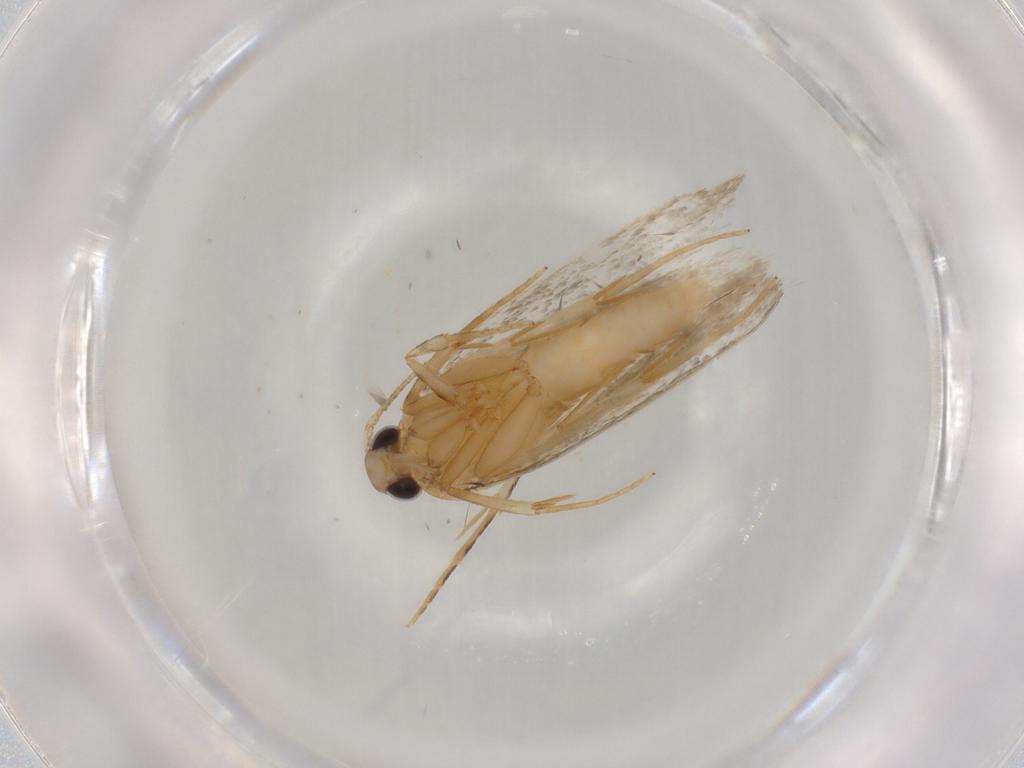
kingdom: Animalia
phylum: Arthropoda
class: Insecta
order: Lepidoptera
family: Autostichidae
